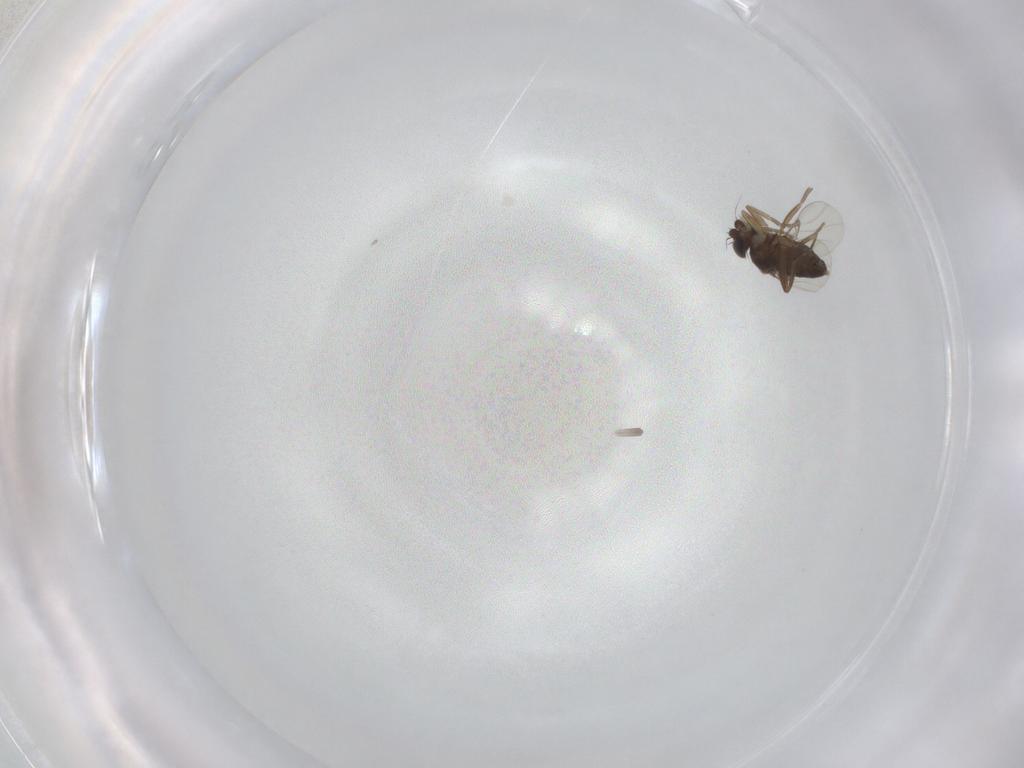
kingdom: Animalia
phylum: Arthropoda
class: Insecta
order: Diptera
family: Phoridae
